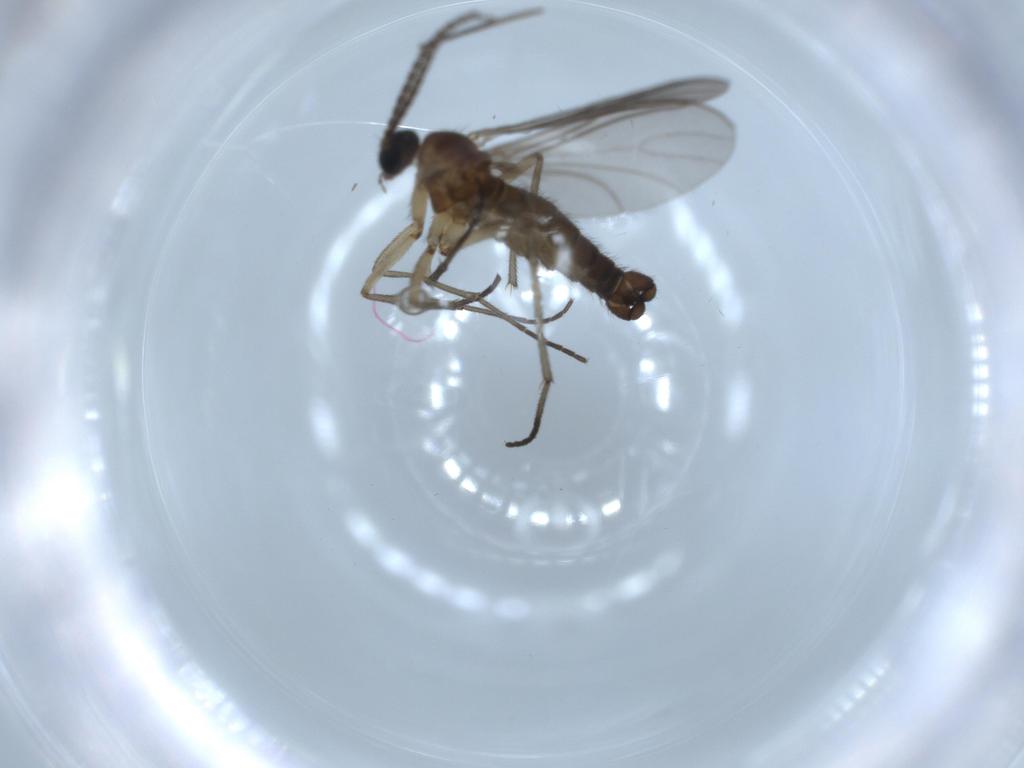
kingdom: Animalia
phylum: Arthropoda
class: Insecta
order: Diptera
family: Sciaridae
